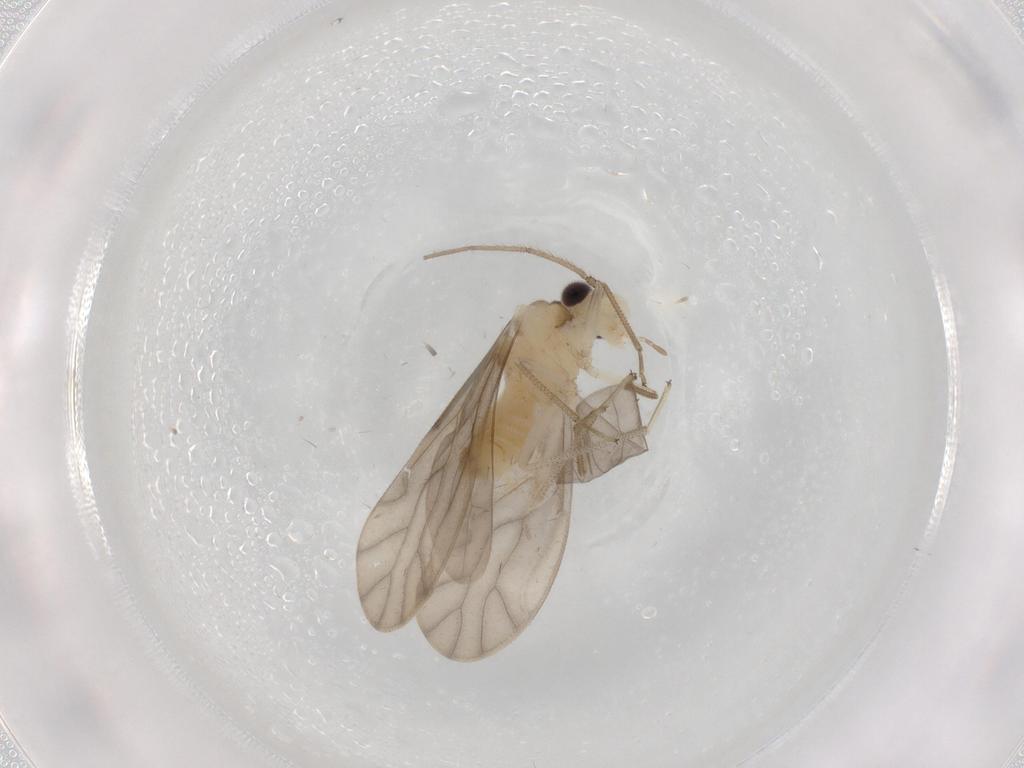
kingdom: Animalia
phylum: Arthropoda
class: Insecta
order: Psocodea
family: Caeciliusidae
